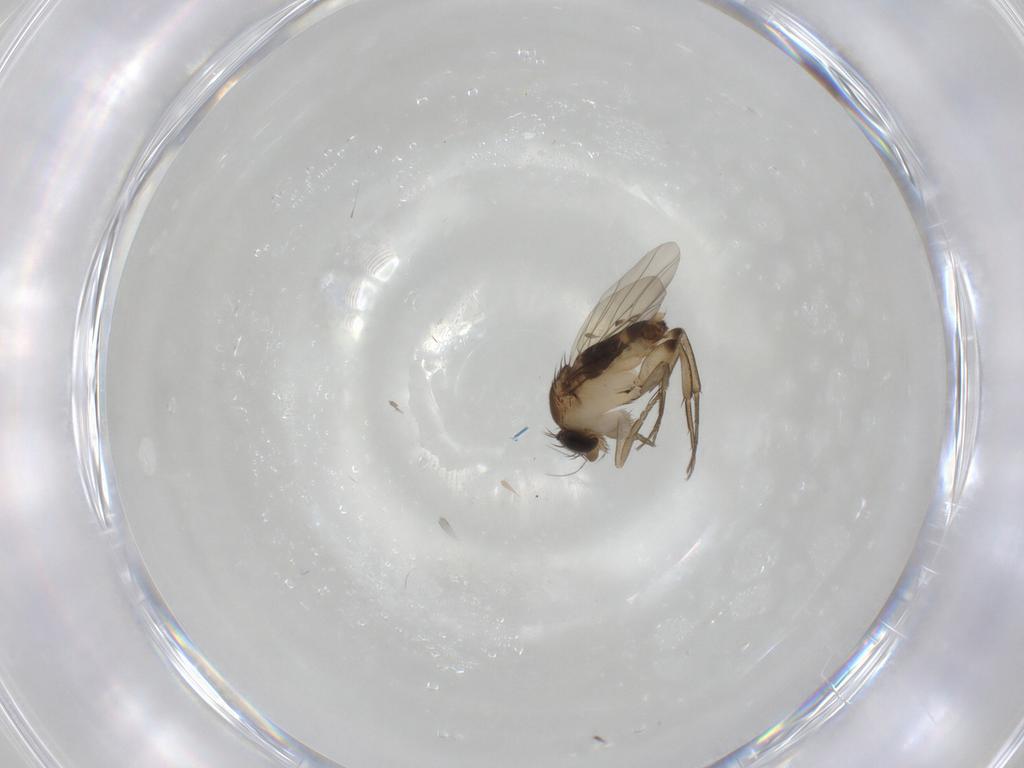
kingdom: Animalia
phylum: Arthropoda
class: Insecta
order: Diptera
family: Phoridae
